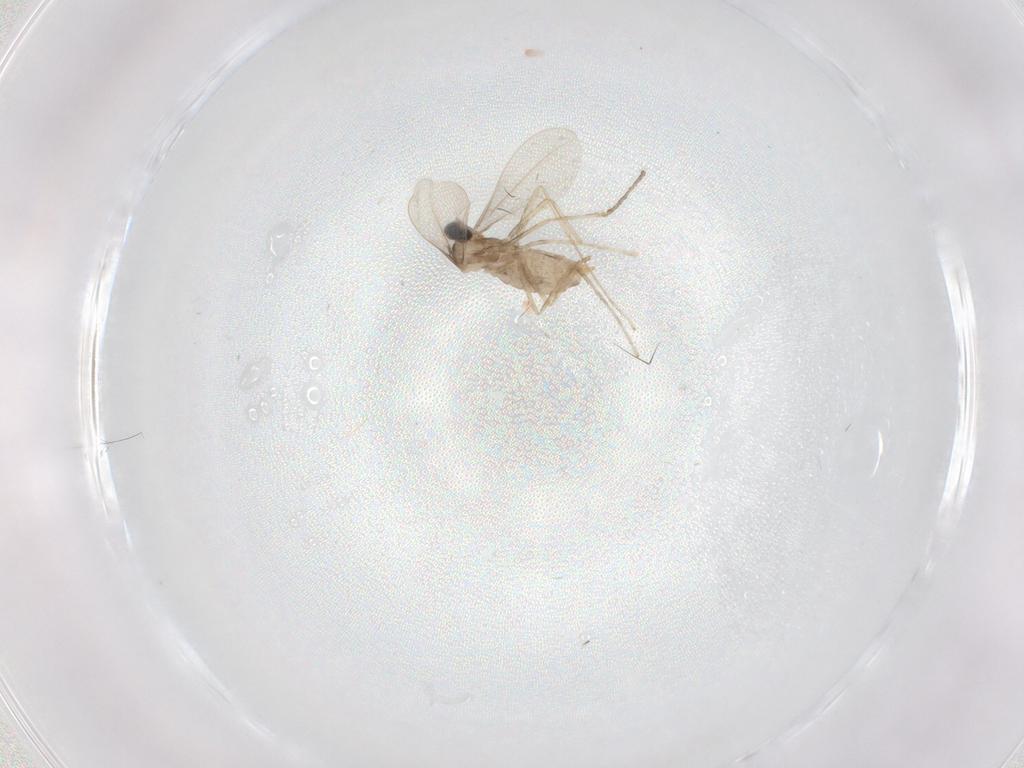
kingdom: Animalia
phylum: Arthropoda
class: Insecta
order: Diptera
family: Cecidomyiidae
